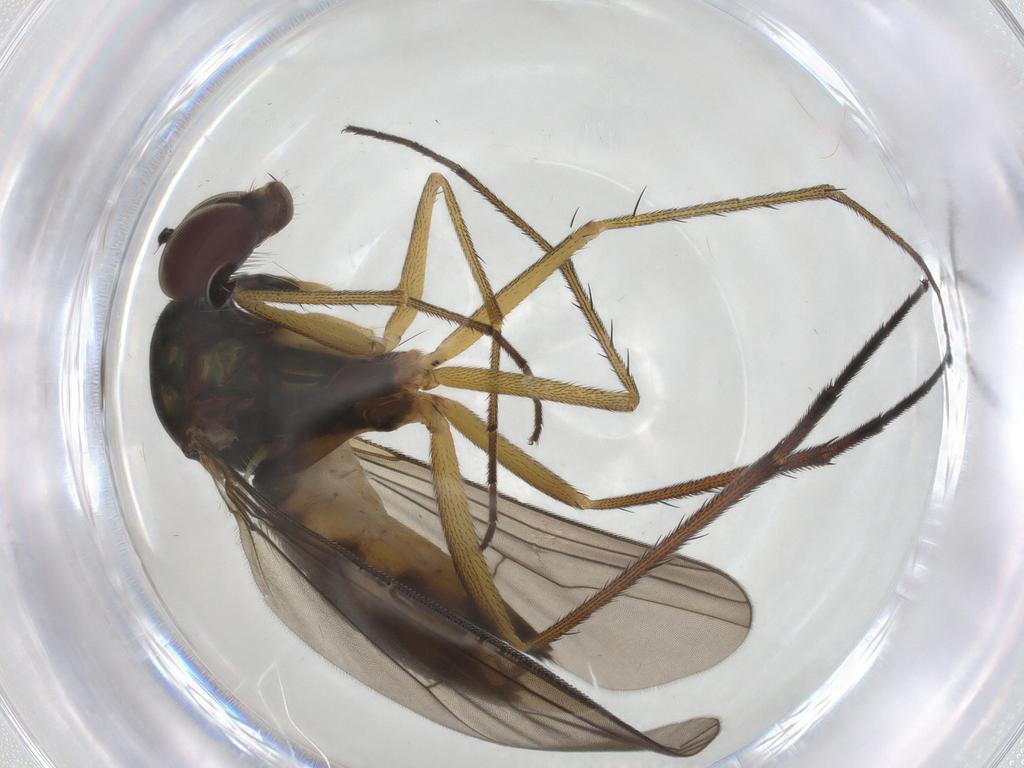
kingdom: Animalia
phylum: Arthropoda
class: Insecta
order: Diptera
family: Dolichopodidae
